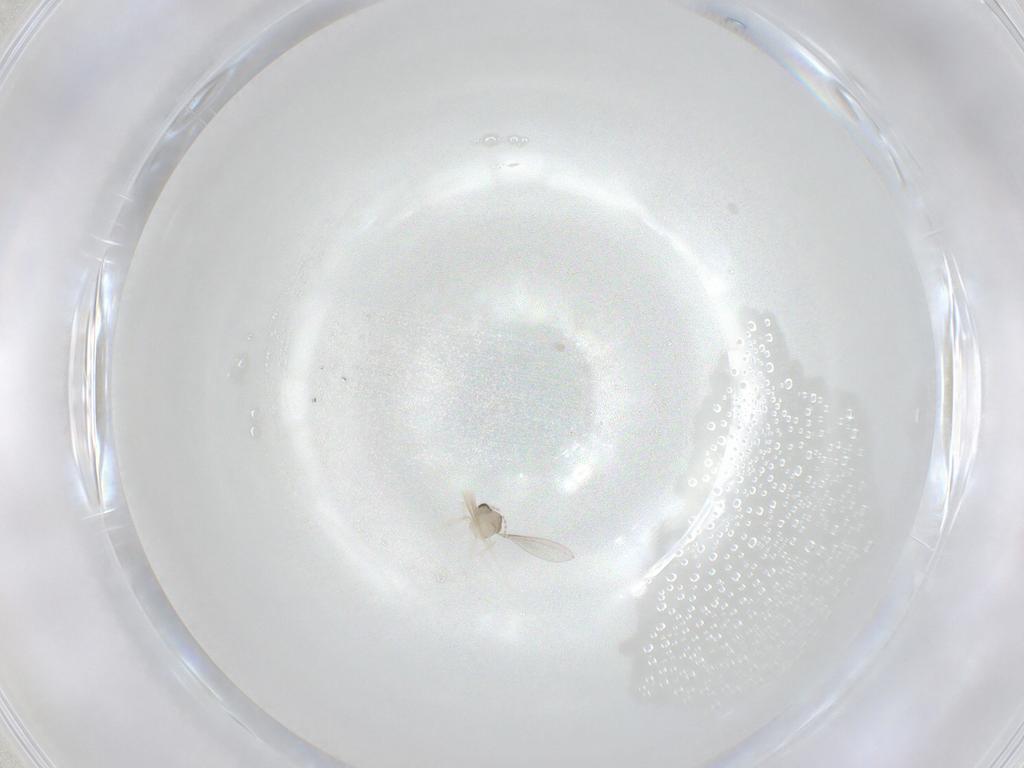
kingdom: Animalia
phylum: Arthropoda
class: Insecta
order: Diptera
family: Cecidomyiidae
